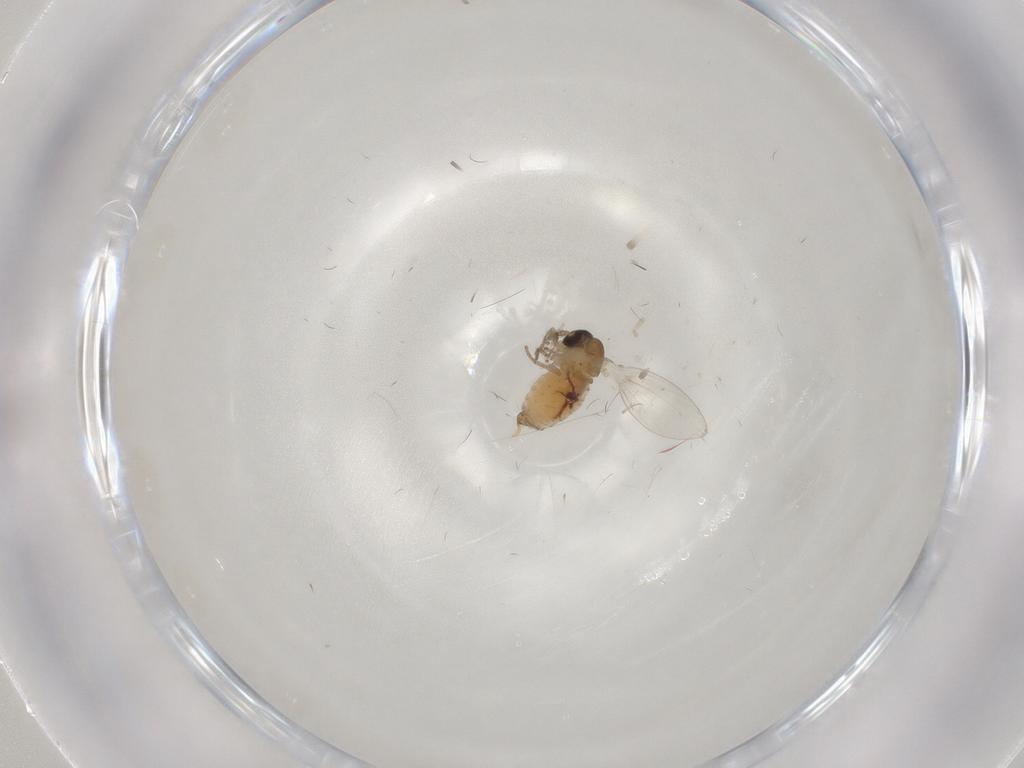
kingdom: Animalia
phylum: Arthropoda
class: Insecta
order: Diptera
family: Psychodidae
